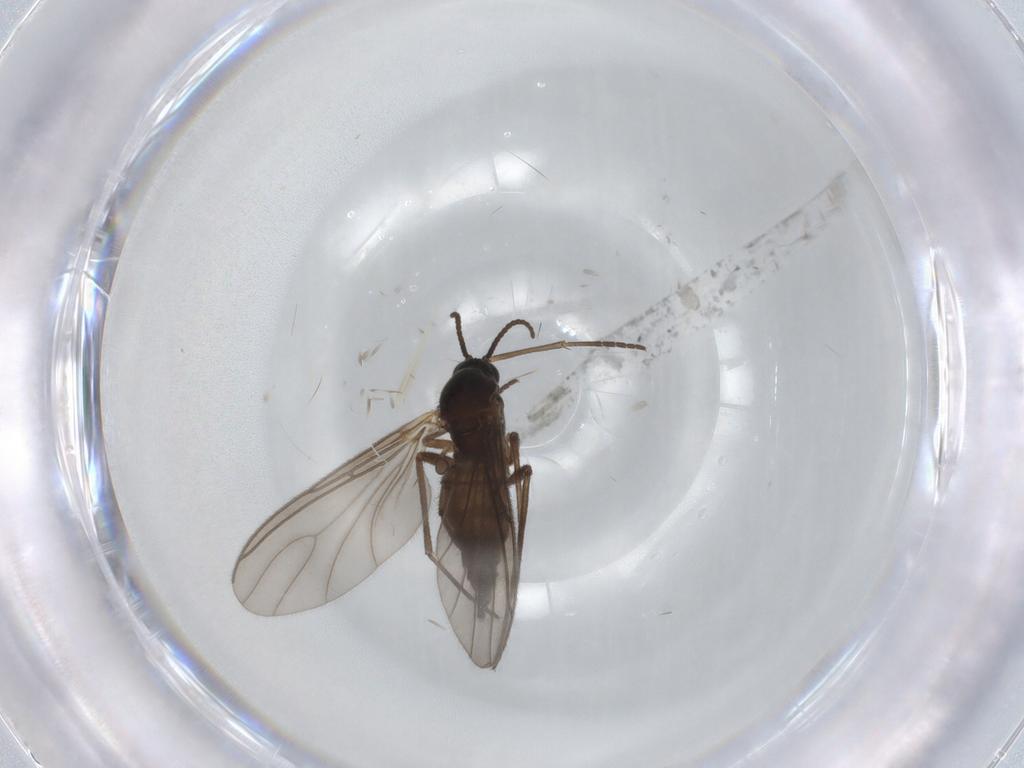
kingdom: Animalia
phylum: Arthropoda
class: Insecta
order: Diptera
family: Sciaridae
